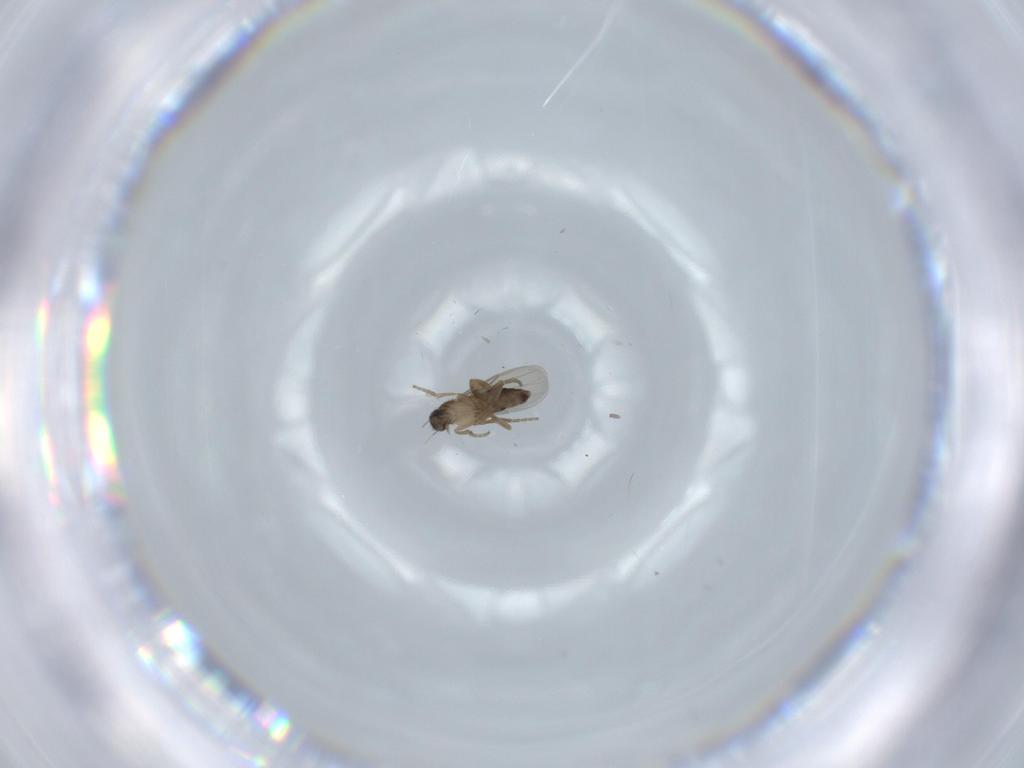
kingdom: Animalia
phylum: Arthropoda
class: Insecta
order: Diptera
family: Phoridae
